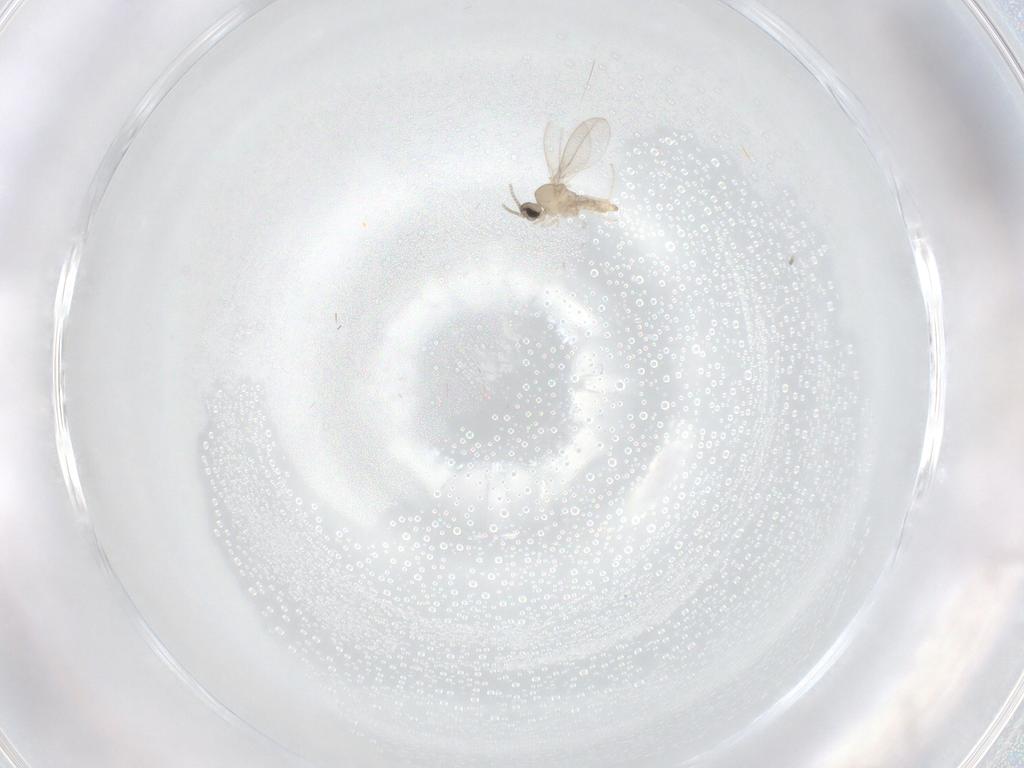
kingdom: Animalia
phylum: Arthropoda
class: Insecta
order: Diptera
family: Cecidomyiidae
